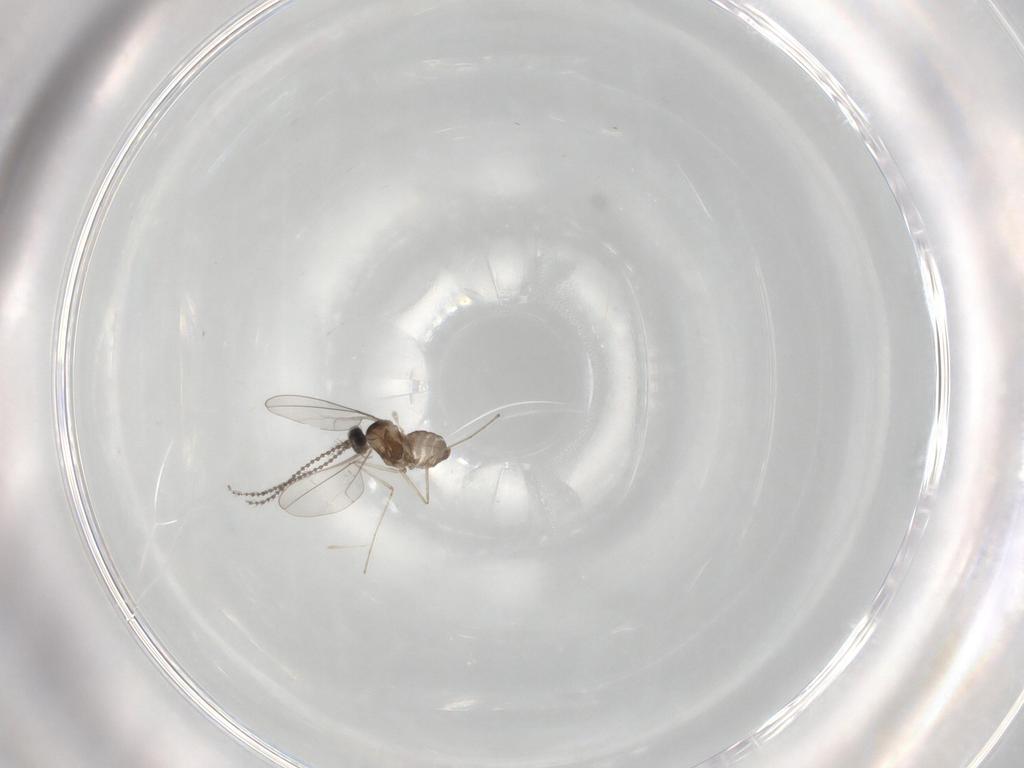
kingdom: Animalia
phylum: Arthropoda
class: Insecta
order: Diptera
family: Cecidomyiidae
